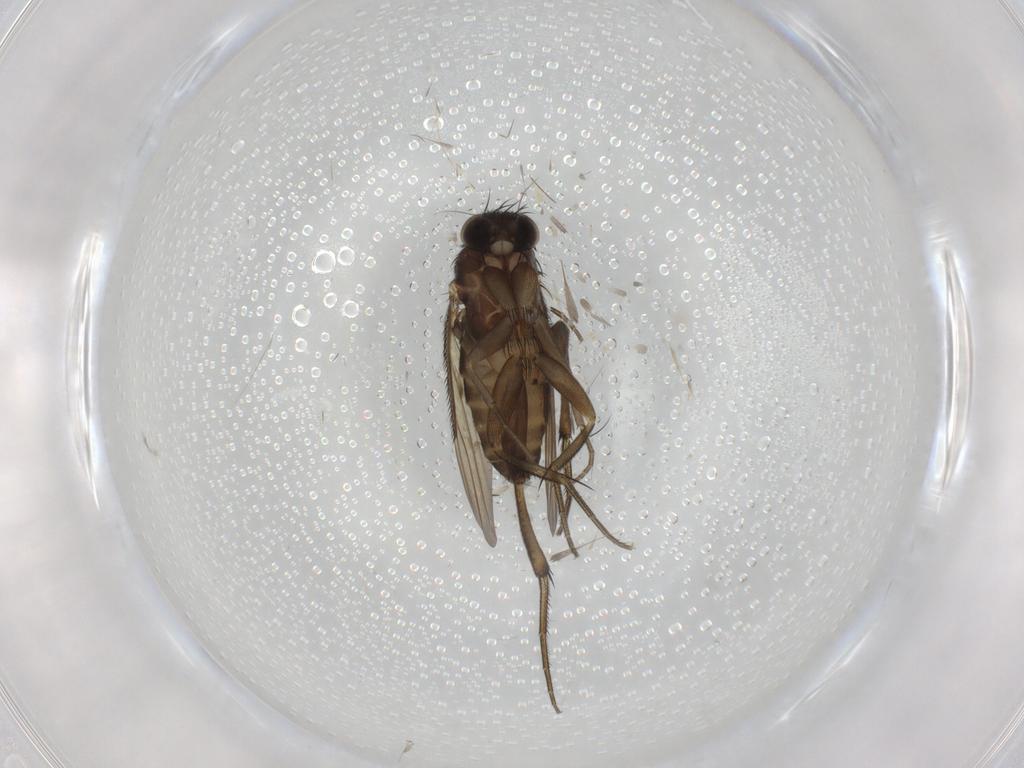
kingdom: Animalia
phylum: Arthropoda
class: Insecta
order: Diptera
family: Phoridae
